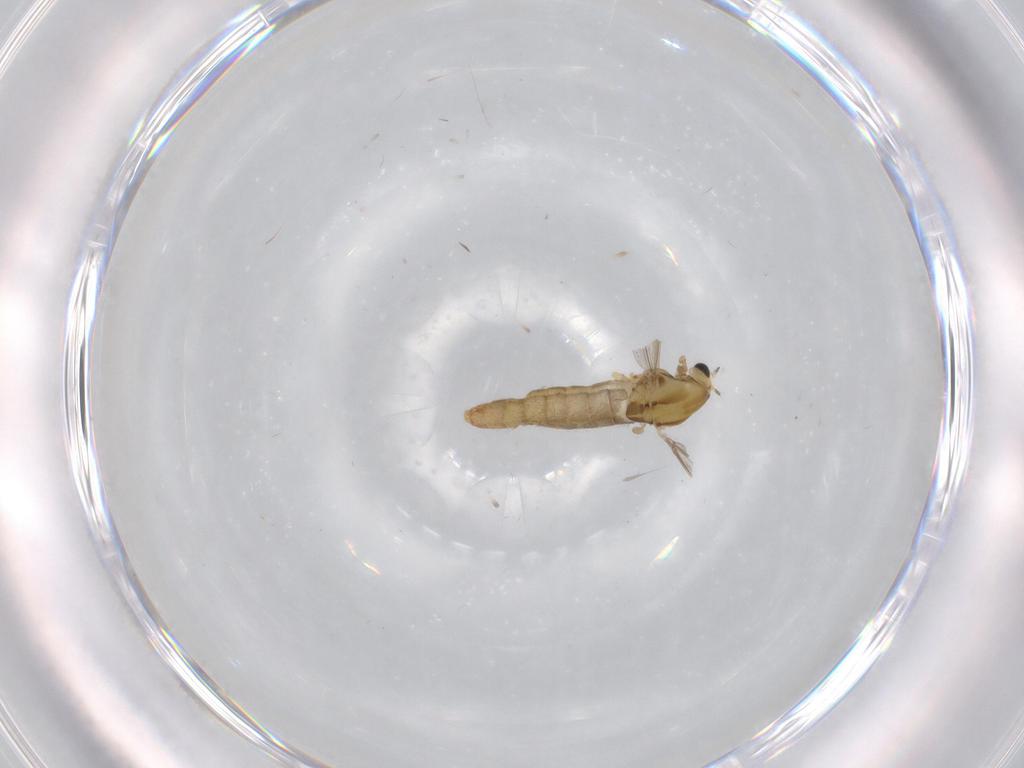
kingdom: Animalia
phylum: Arthropoda
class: Insecta
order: Diptera
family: Chironomidae
